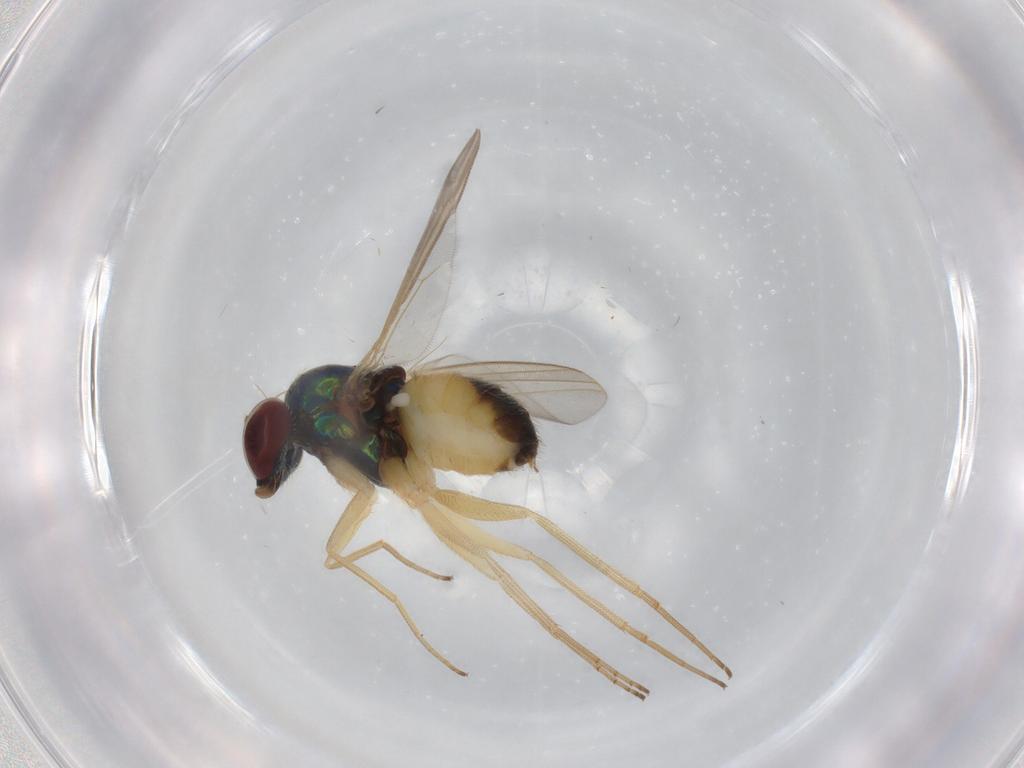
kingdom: Animalia
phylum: Arthropoda
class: Insecta
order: Diptera
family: Dolichopodidae
